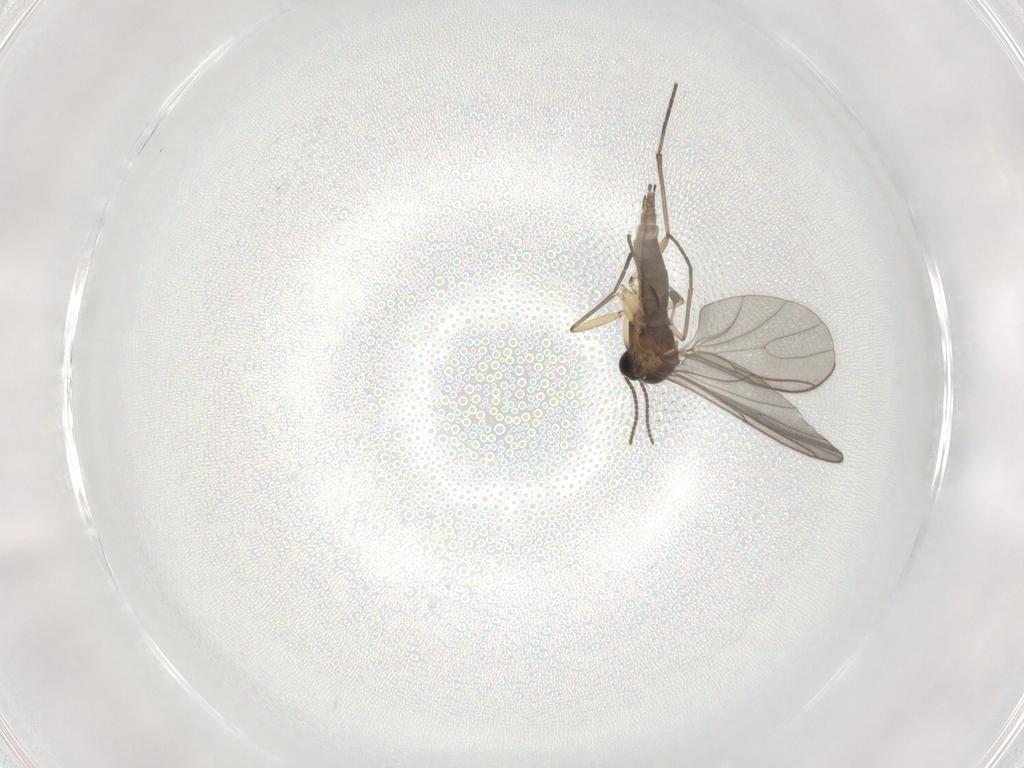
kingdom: Animalia
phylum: Arthropoda
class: Insecta
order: Diptera
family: Sciaridae
